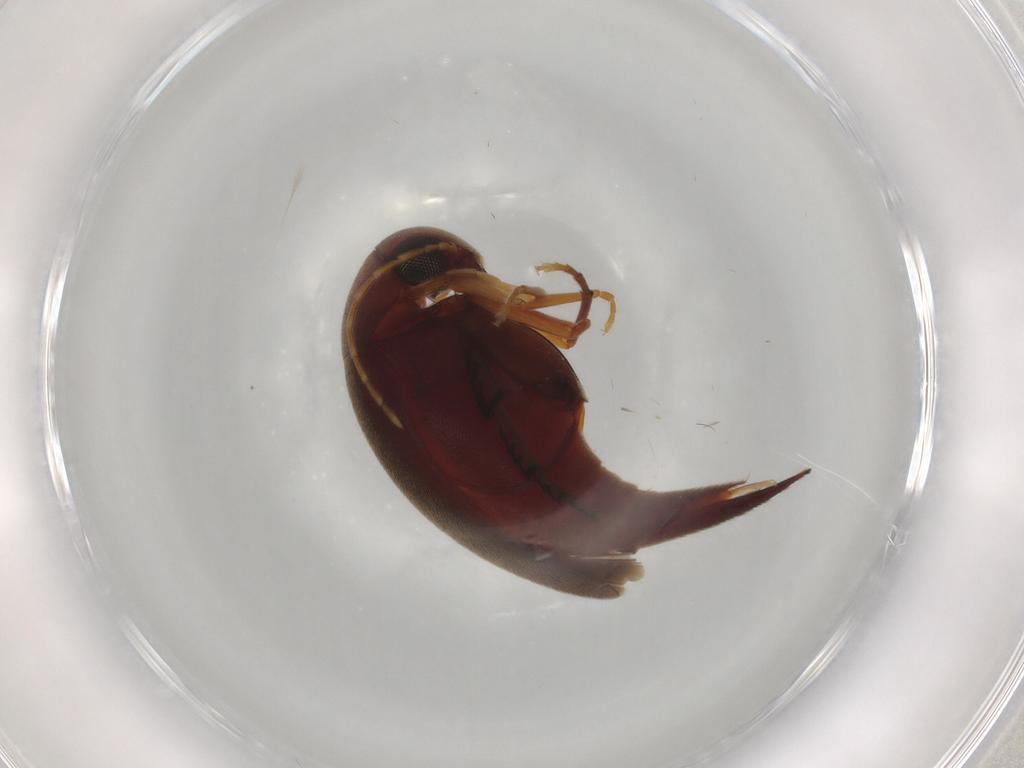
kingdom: Animalia
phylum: Arthropoda
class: Insecta
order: Coleoptera
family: Mordellidae
